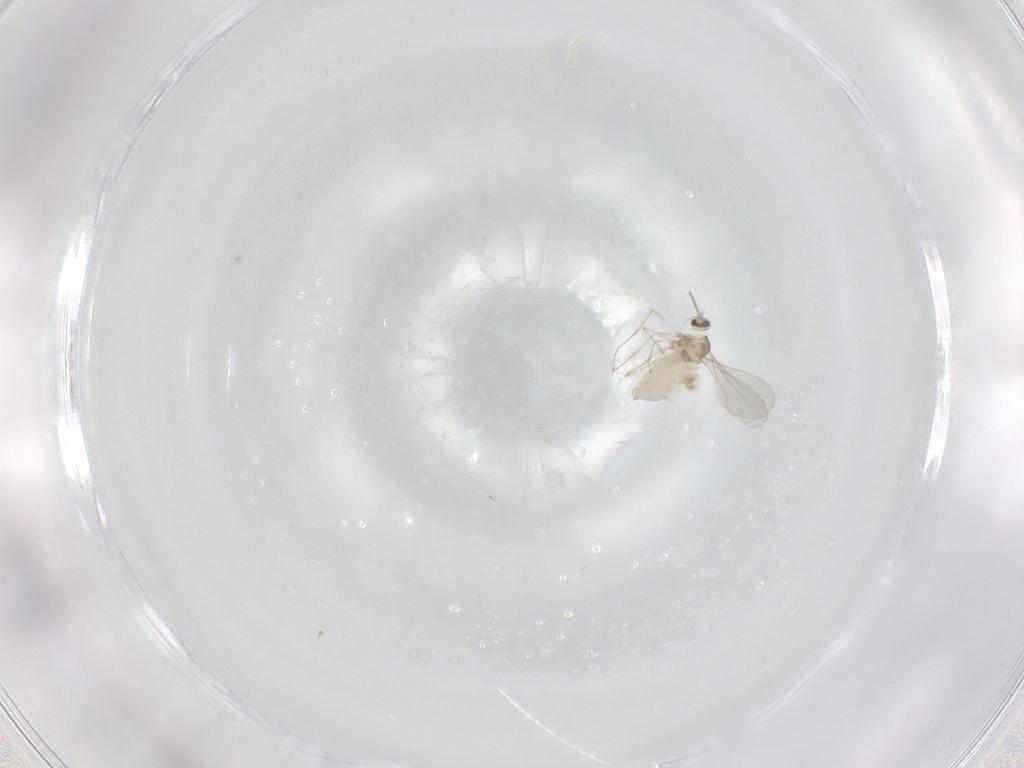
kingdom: Animalia
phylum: Arthropoda
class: Insecta
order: Diptera
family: Cecidomyiidae
